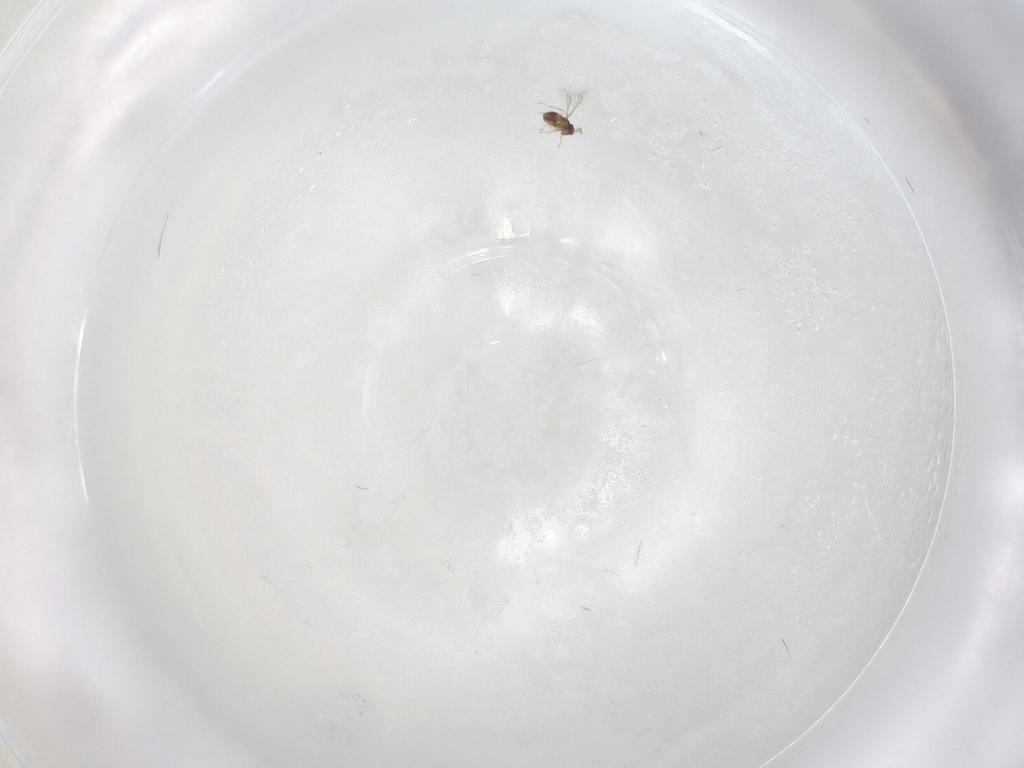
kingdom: Animalia
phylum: Arthropoda
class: Insecta
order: Hymenoptera
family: Mymaridae
